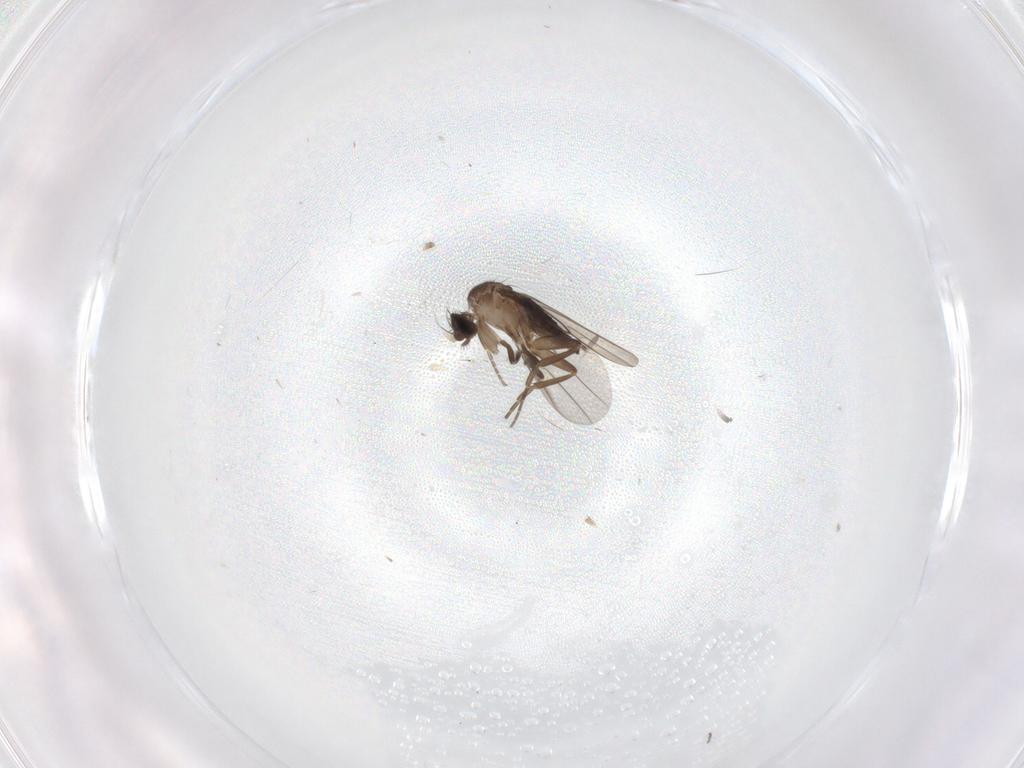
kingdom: Animalia
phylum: Arthropoda
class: Insecta
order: Diptera
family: Phoridae
